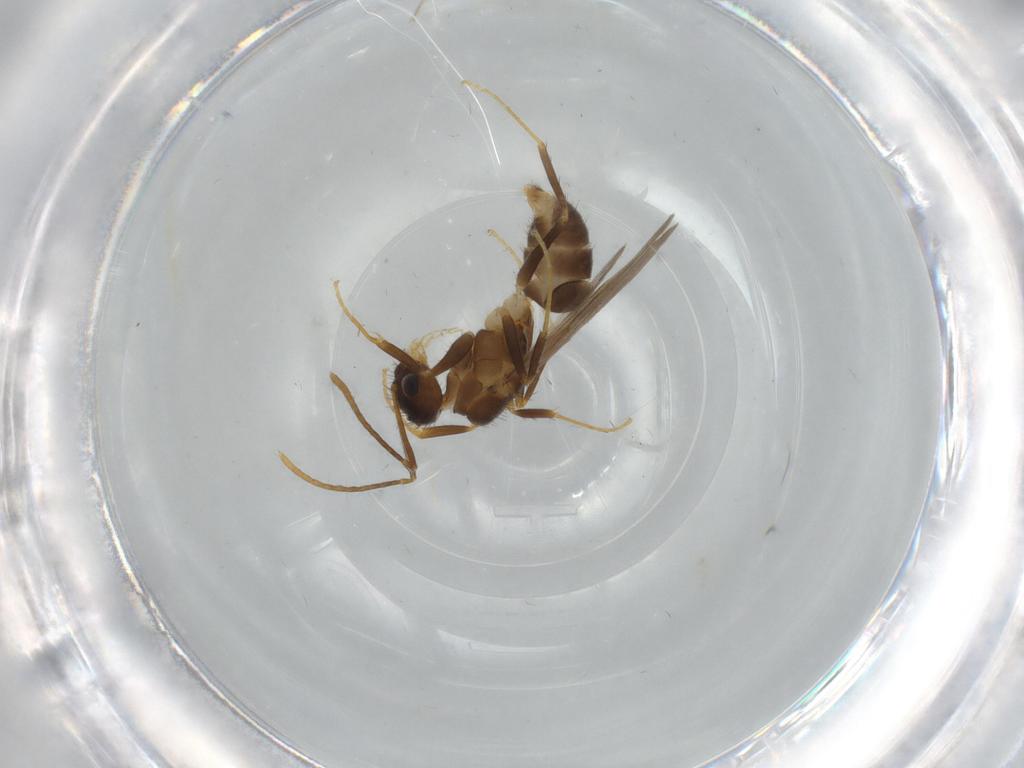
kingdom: Animalia
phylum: Arthropoda
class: Insecta
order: Hymenoptera
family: Formicidae
